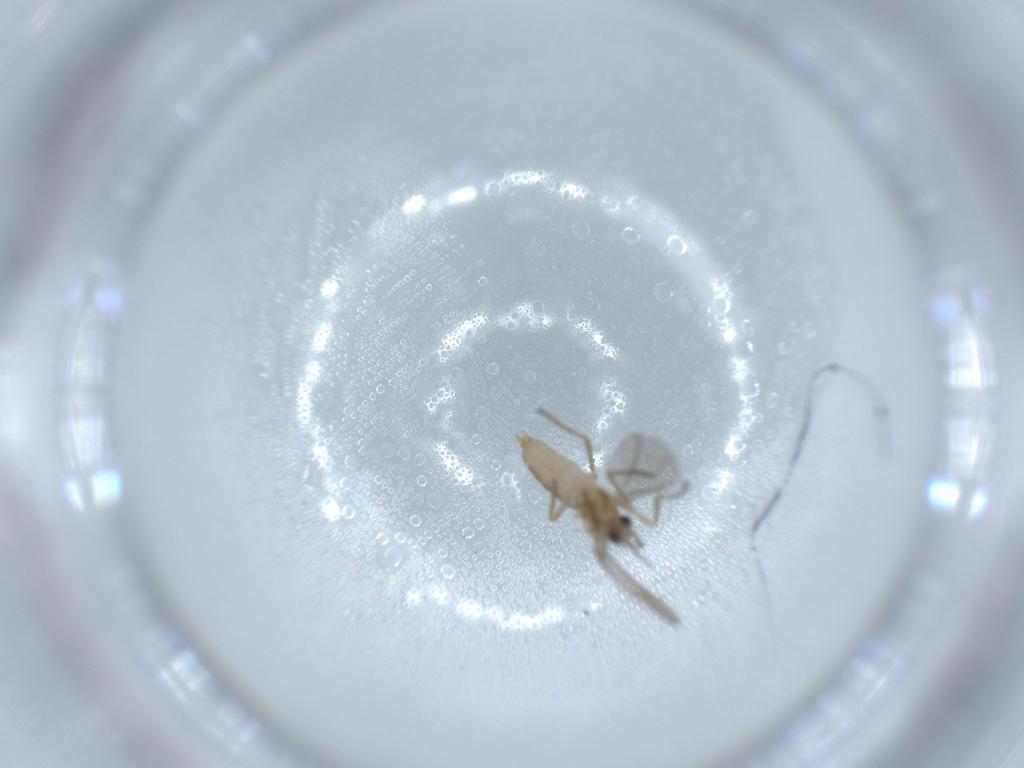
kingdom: Animalia
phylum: Arthropoda
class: Insecta
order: Diptera
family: Cecidomyiidae
